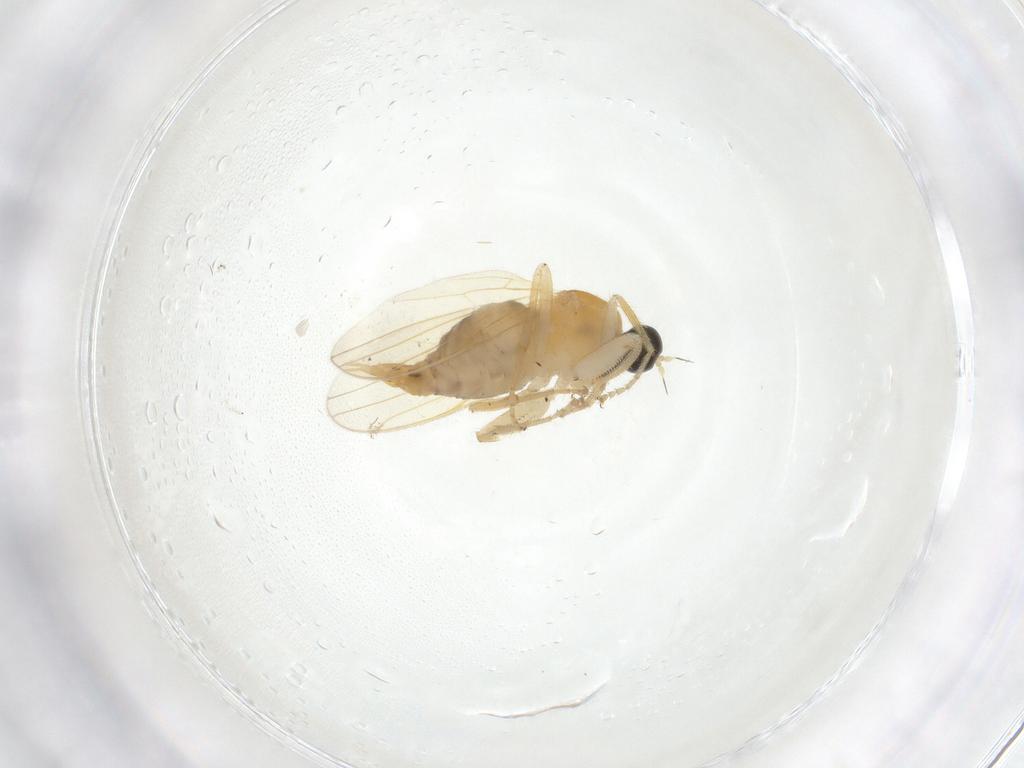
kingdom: Animalia
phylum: Arthropoda
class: Insecta
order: Diptera
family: Hybotidae
